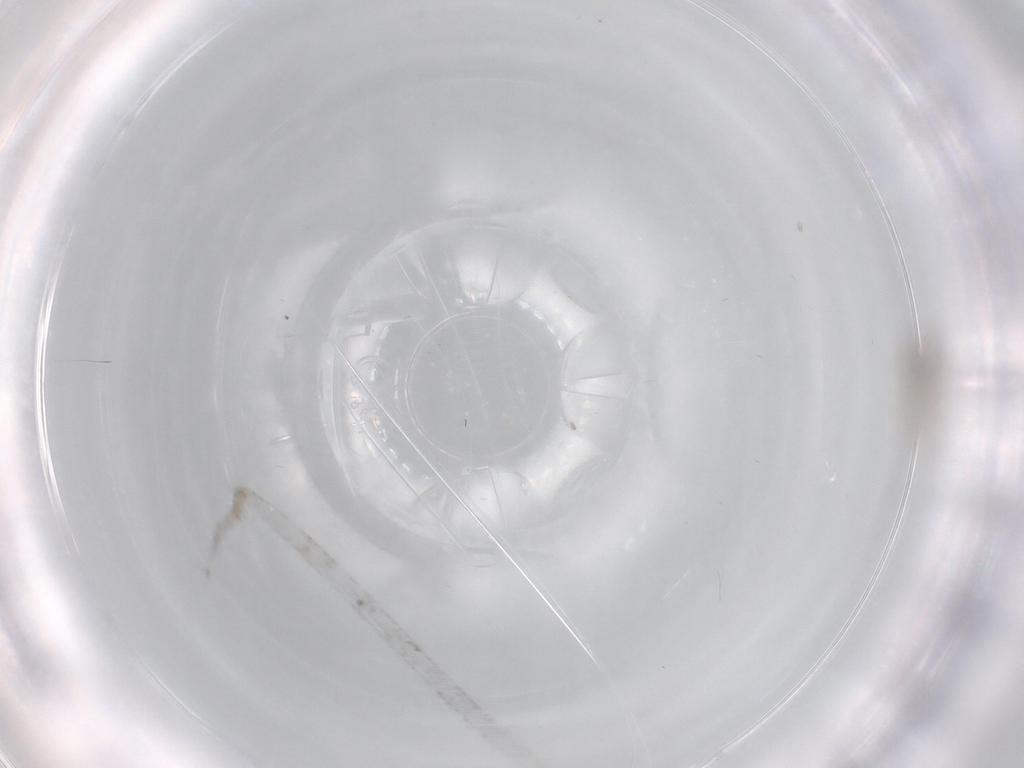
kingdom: Animalia
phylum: Arthropoda
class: Insecta
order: Diptera
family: Cecidomyiidae
